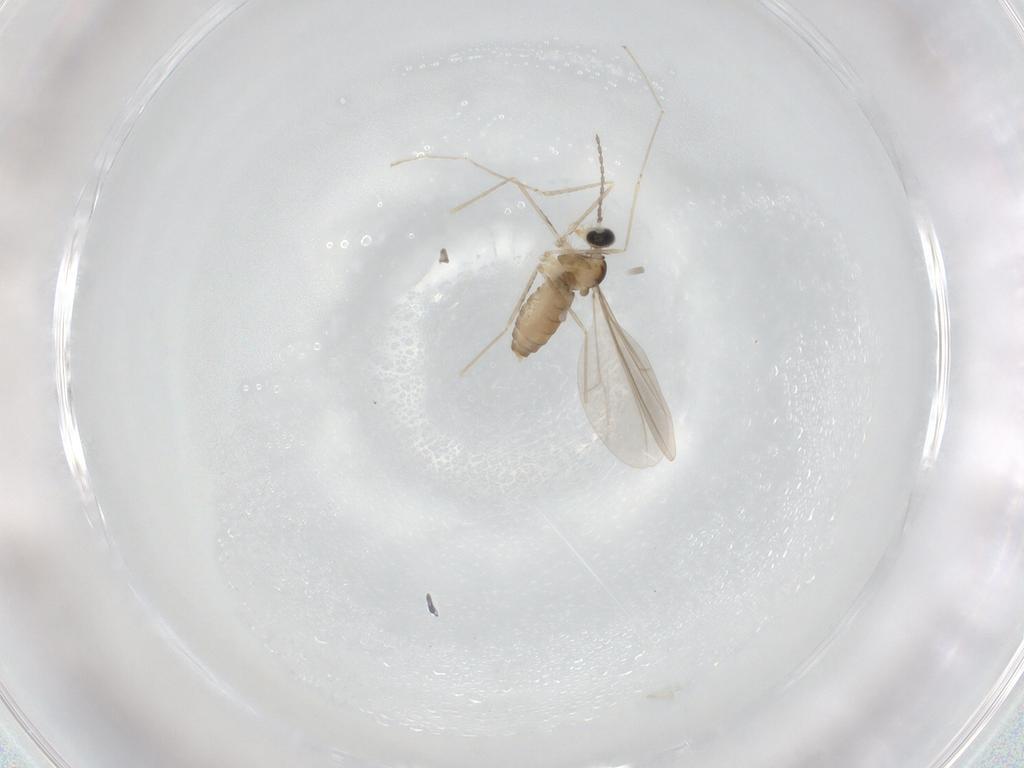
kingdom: Animalia
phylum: Arthropoda
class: Insecta
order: Diptera
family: Cecidomyiidae
